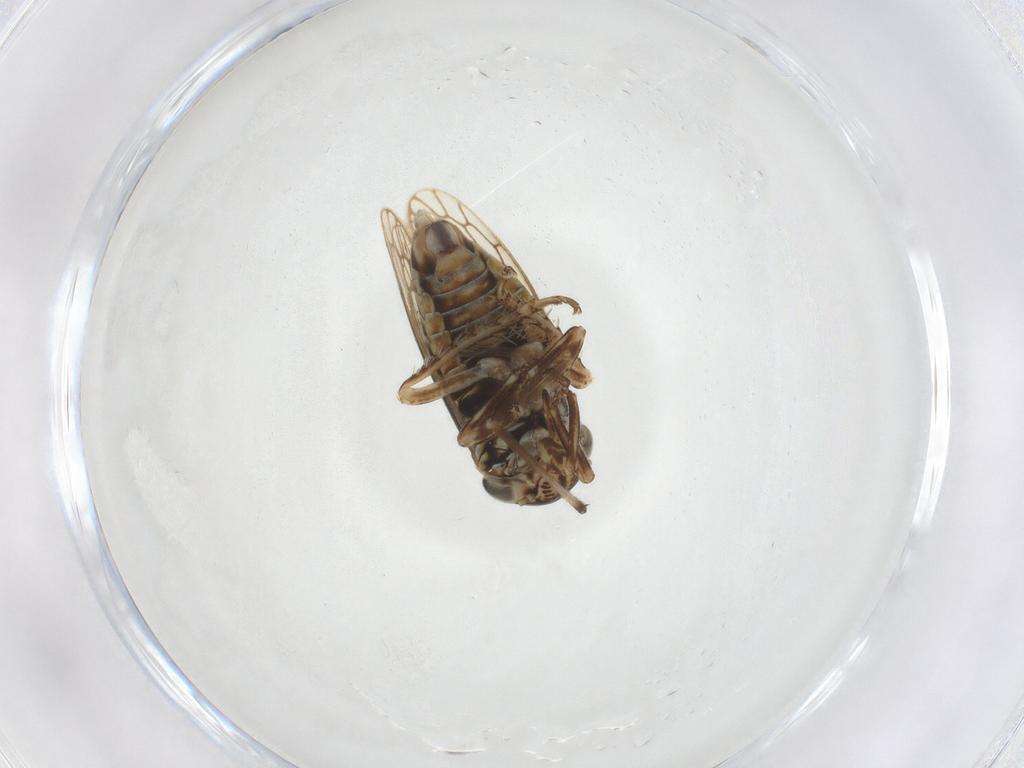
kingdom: Animalia
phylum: Arthropoda
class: Insecta
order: Hemiptera
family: Cicadellidae
